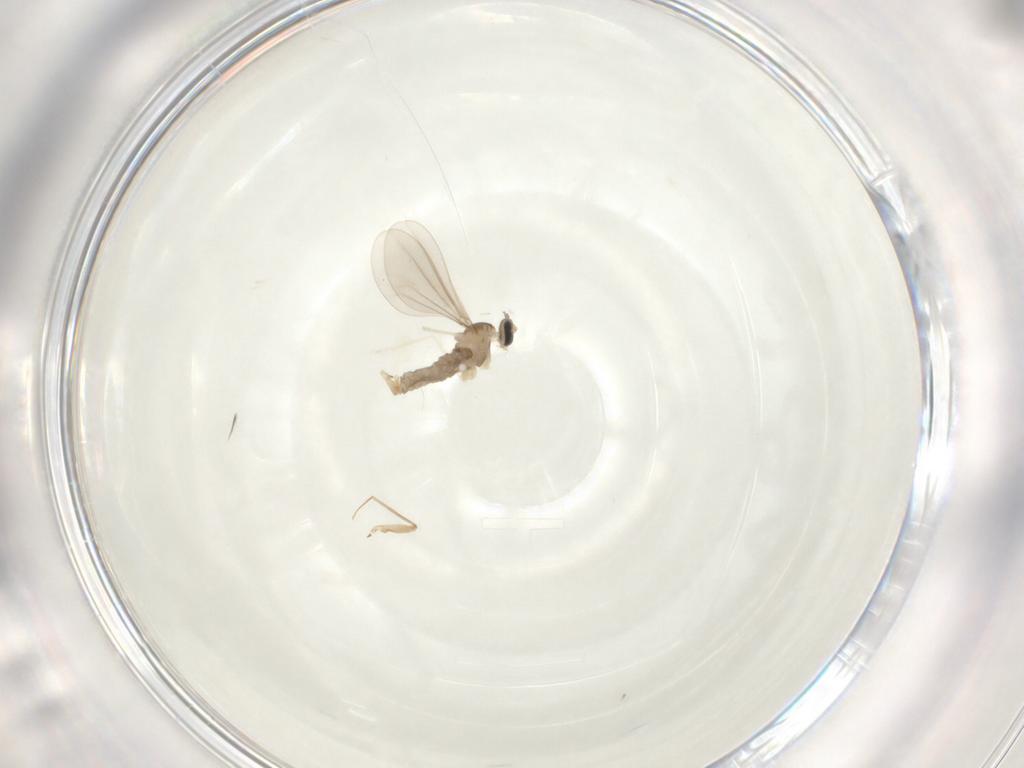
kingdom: Animalia
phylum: Arthropoda
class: Insecta
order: Diptera
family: Cecidomyiidae
